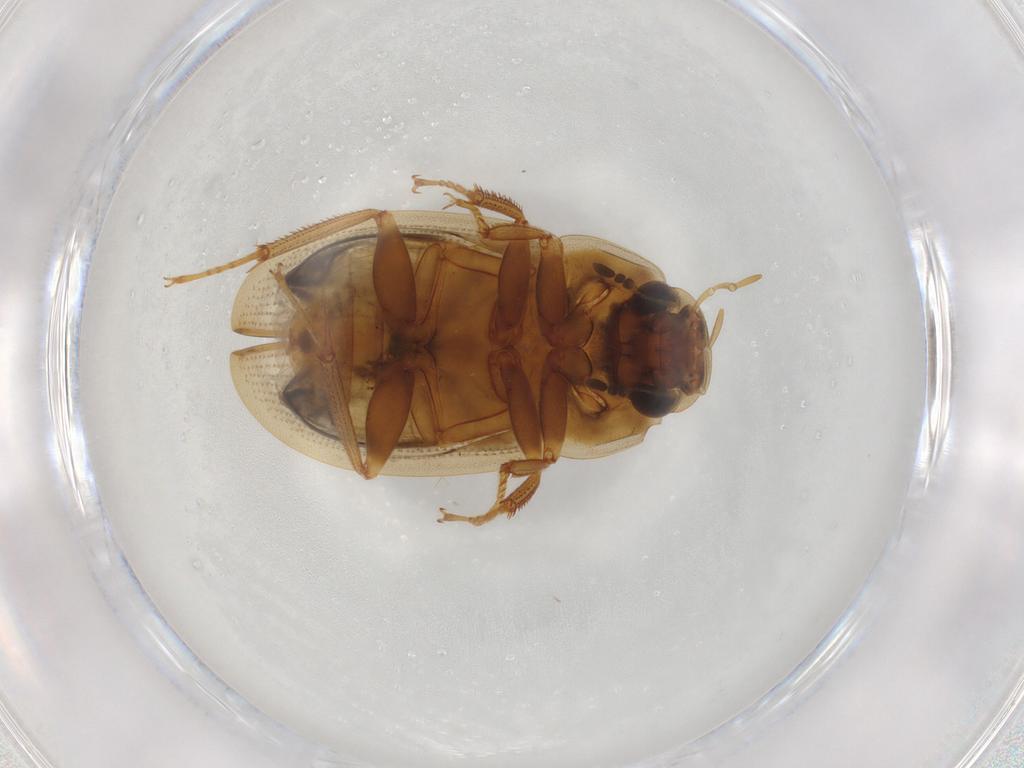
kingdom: Animalia
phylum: Arthropoda
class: Insecta
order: Coleoptera
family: Hydrophilidae
